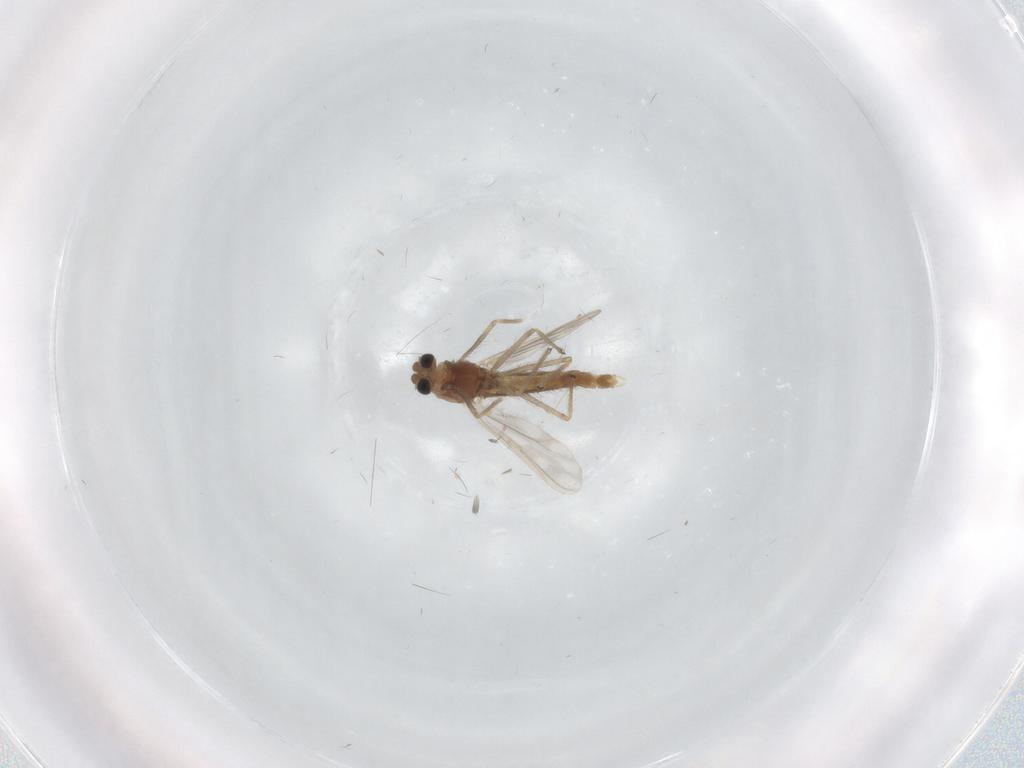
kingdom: Animalia
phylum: Arthropoda
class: Insecta
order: Diptera
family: Chironomidae
